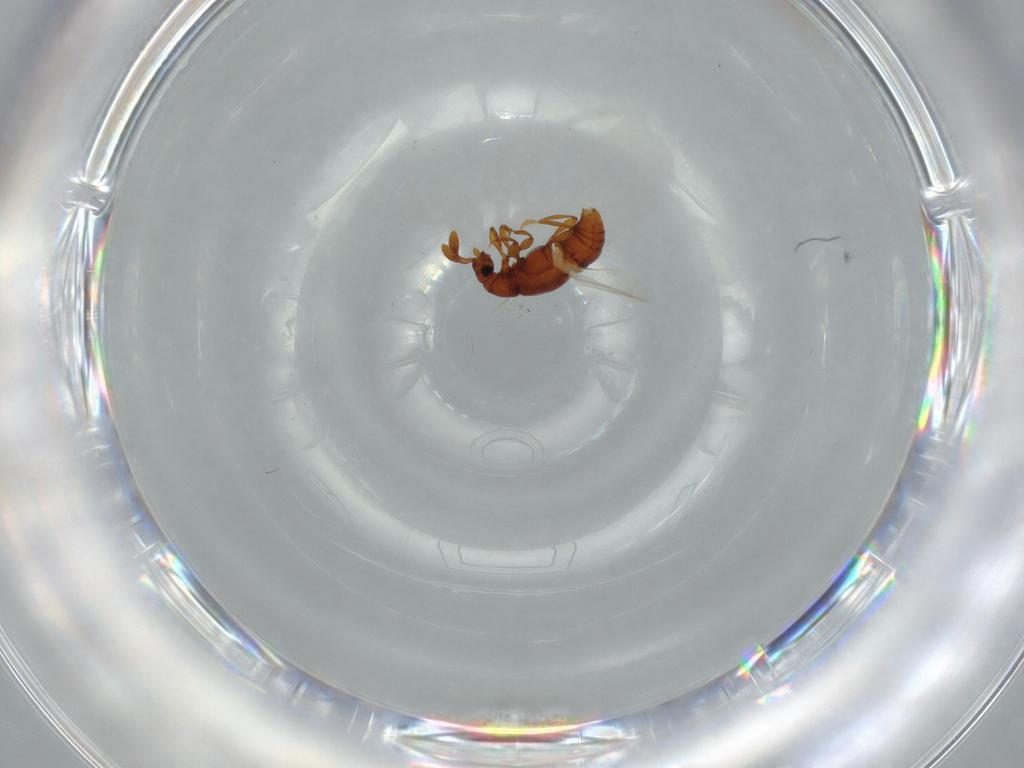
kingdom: Animalia
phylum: Arthropoda
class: Insecta
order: Coleoptera
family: Staphylinidae
